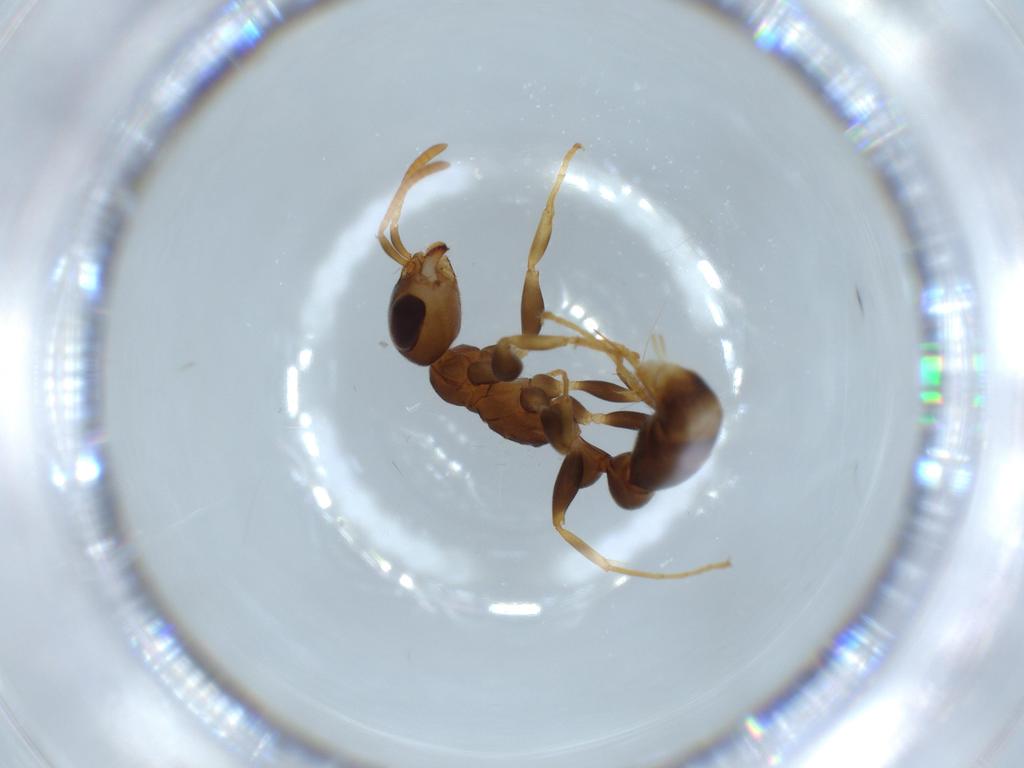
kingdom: Animalia
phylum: Arthropoda
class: Insecta
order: Hymenoptera
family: Formicidae
